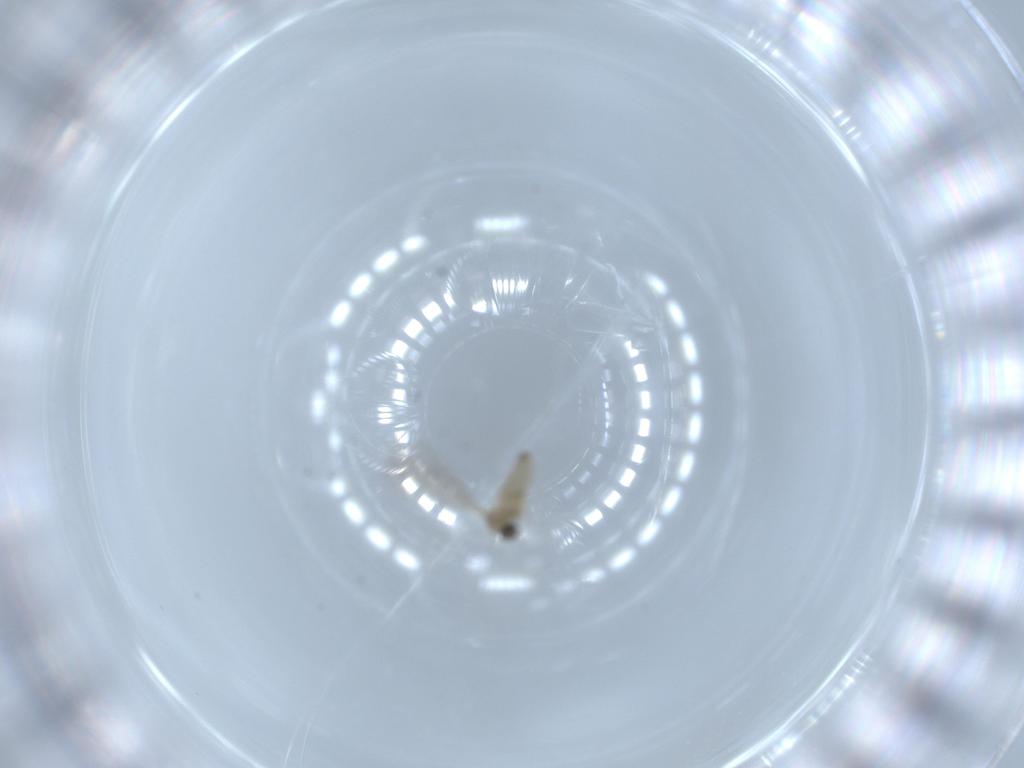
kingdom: Animalia
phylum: Arthropoda
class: Insecta
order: Diptera
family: Cecidomyiidae
